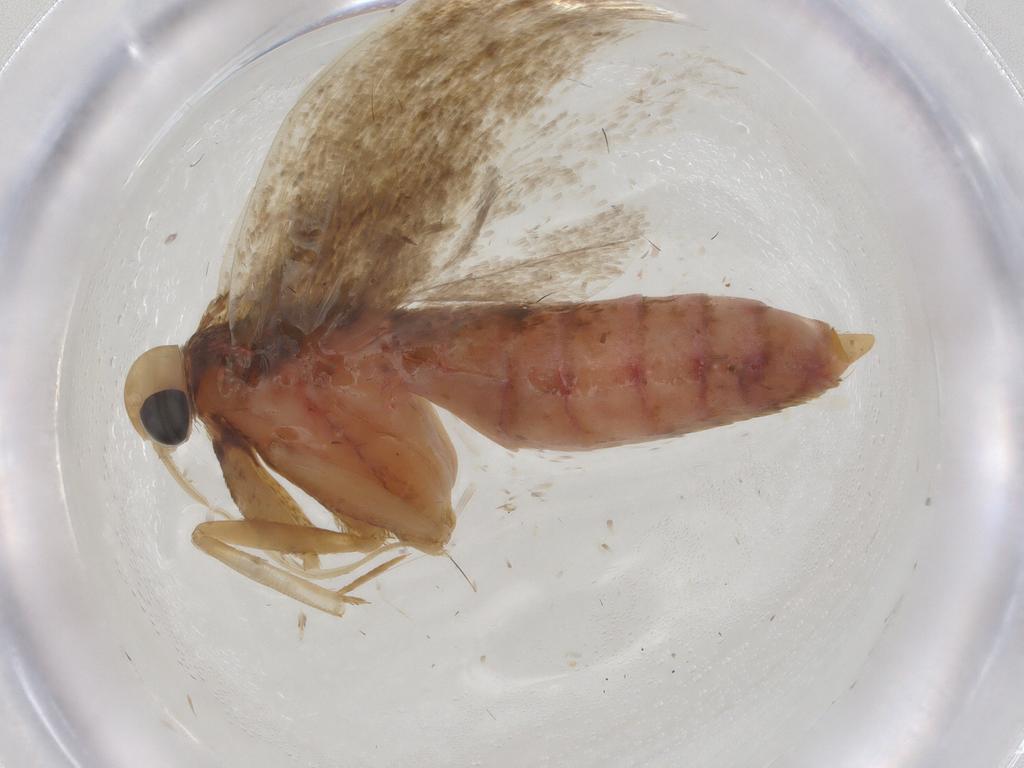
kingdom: Animalia
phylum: Arthropoda
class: Insecta
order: Lepidoptera
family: Autostichidae
